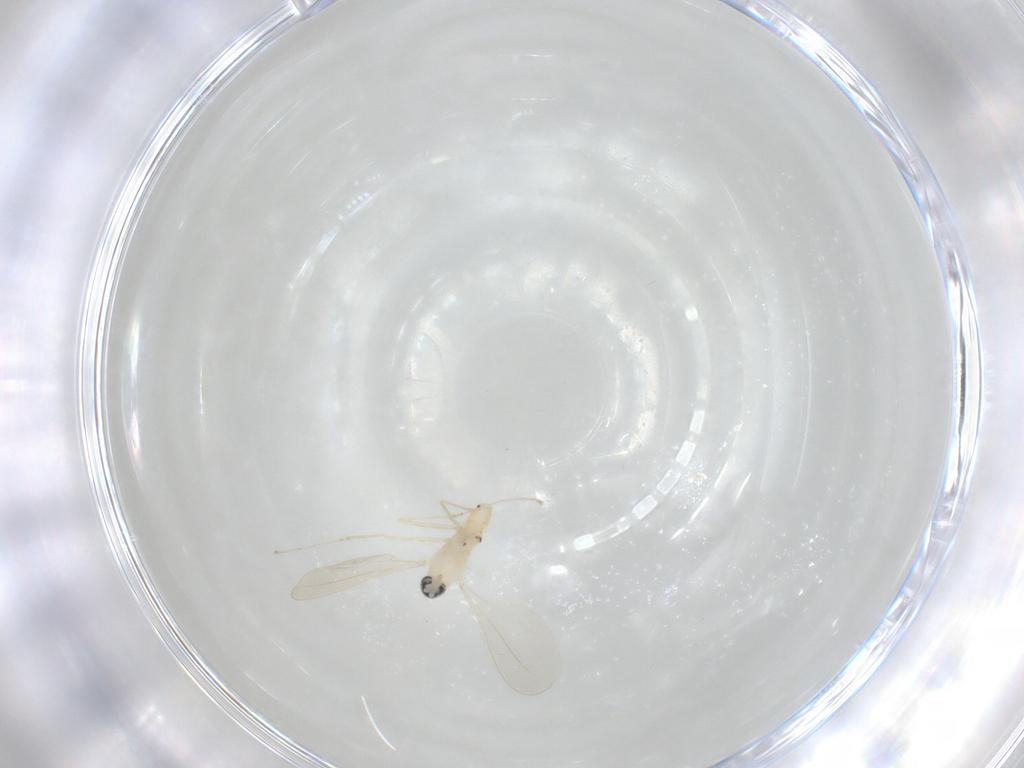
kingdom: Animalia
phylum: Arthropoda
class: Insecta
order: Diptera
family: Cecidomyiidae
